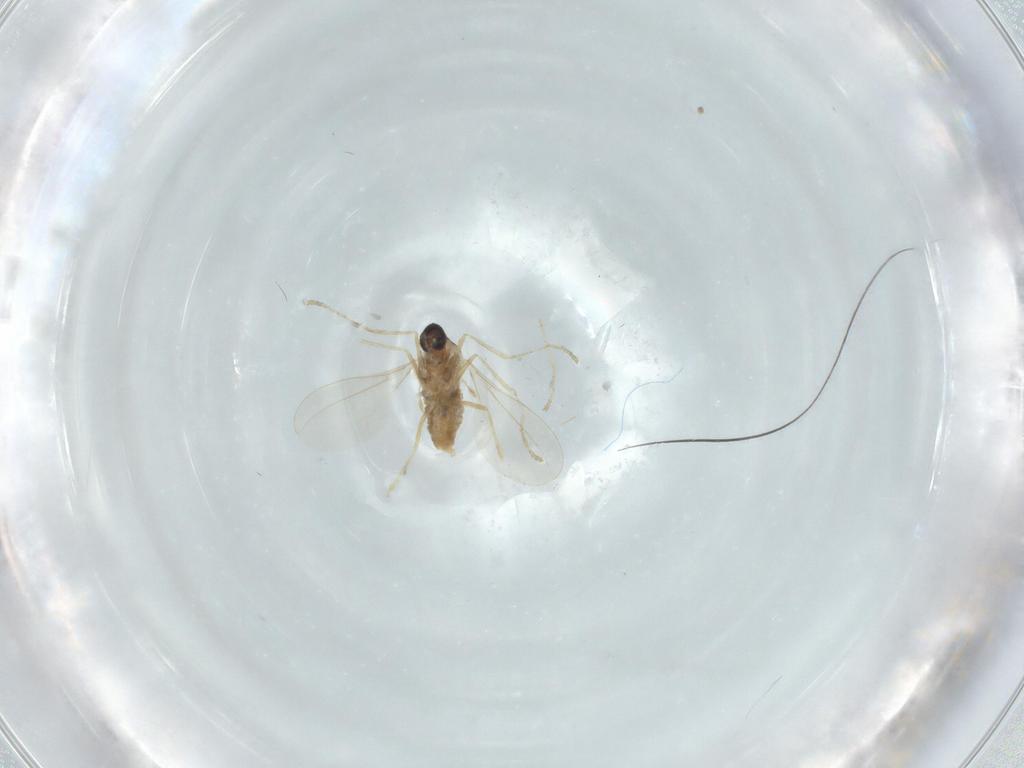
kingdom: Animalia
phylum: Arthropoda
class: Insecta
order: Diptera
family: Cecidomyiidae
